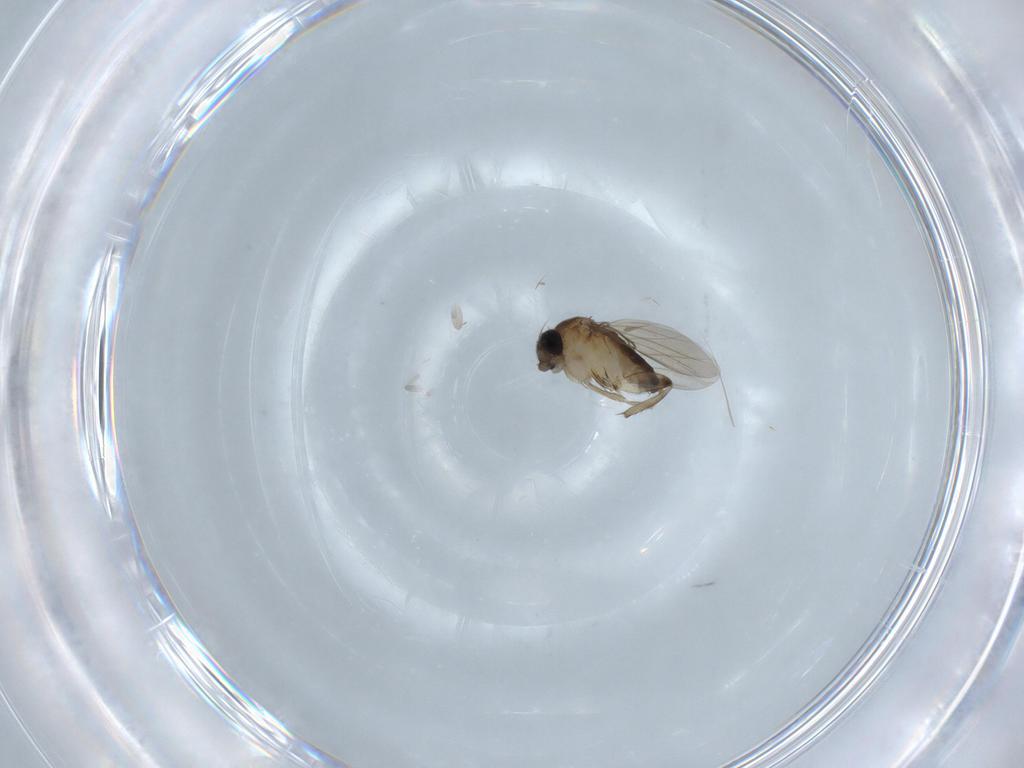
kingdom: Animalia
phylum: Arthropoda
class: Insecta
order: Diptera
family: Phoridae
